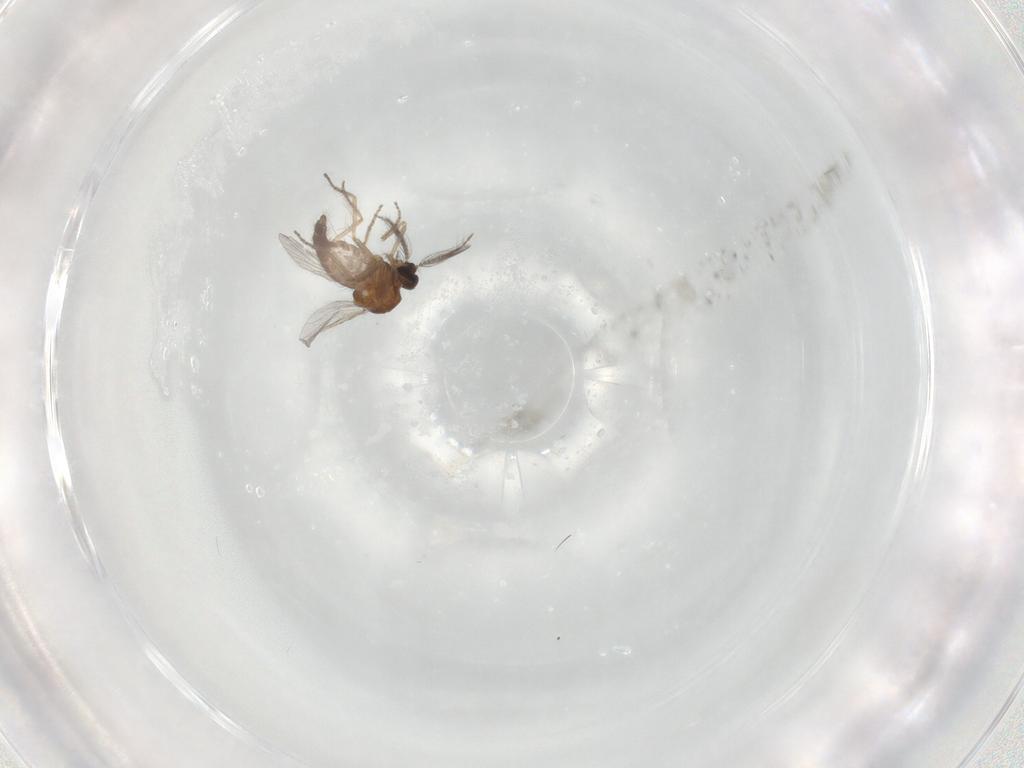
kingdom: Animalia
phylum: Arthropoda
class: Insecta
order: Diptera
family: Ceratopogonidae
